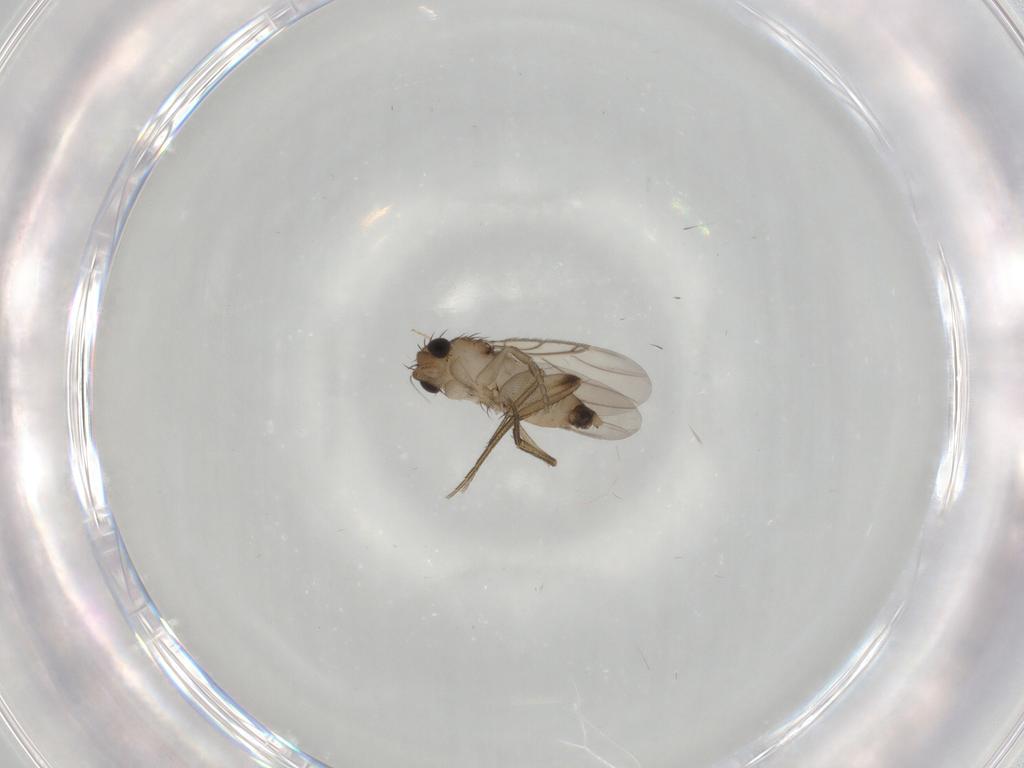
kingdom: Animalia
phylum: Arthropoda
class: Insecta
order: Diptera
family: Phoridae
